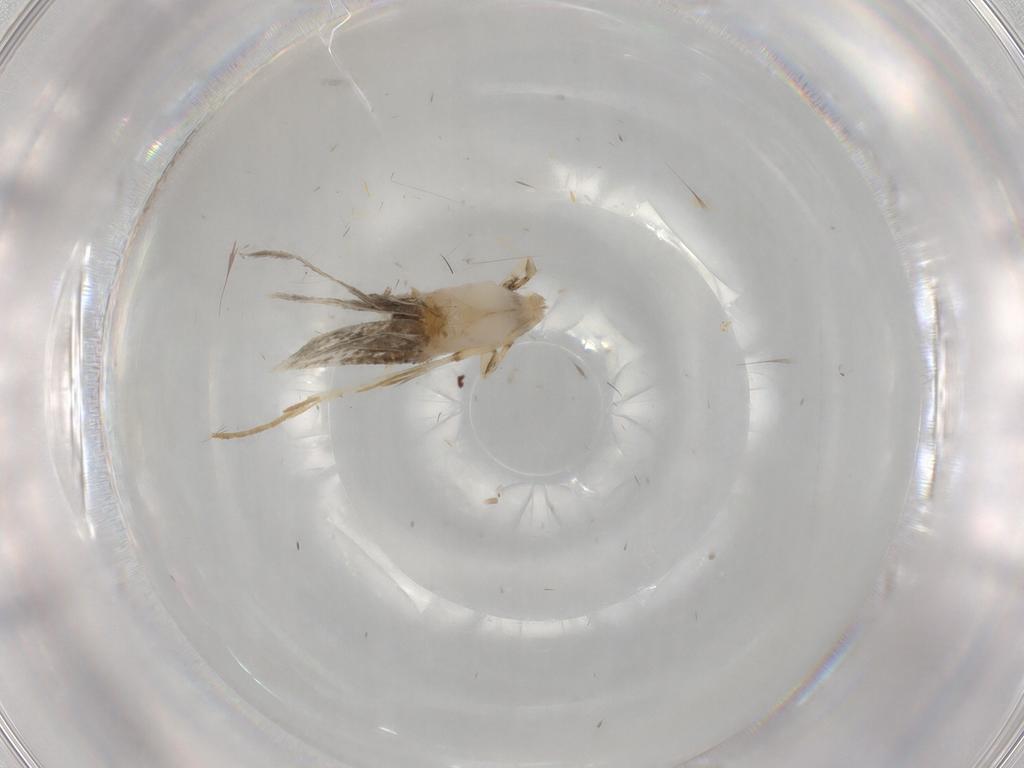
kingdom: Animalia
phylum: Arthropoda
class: Insecta
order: Lepidoptera
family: Tineidae
